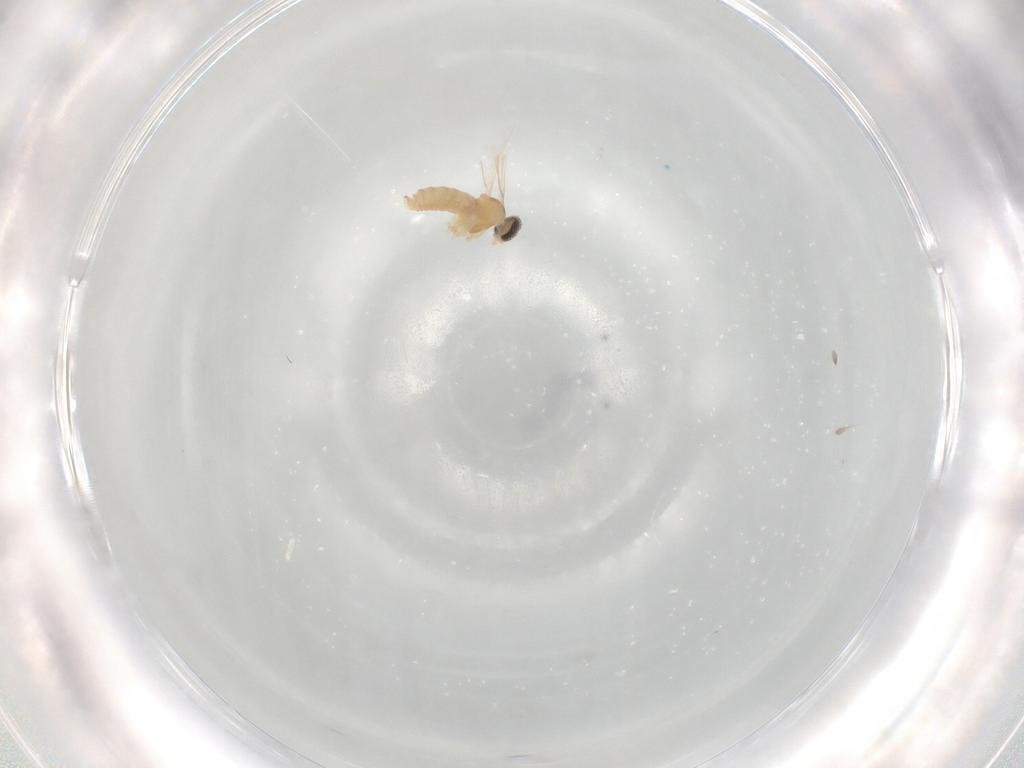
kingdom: Animalia
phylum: Arthropoda
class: Insecta
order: Diptera
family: Cecidomyiidae
